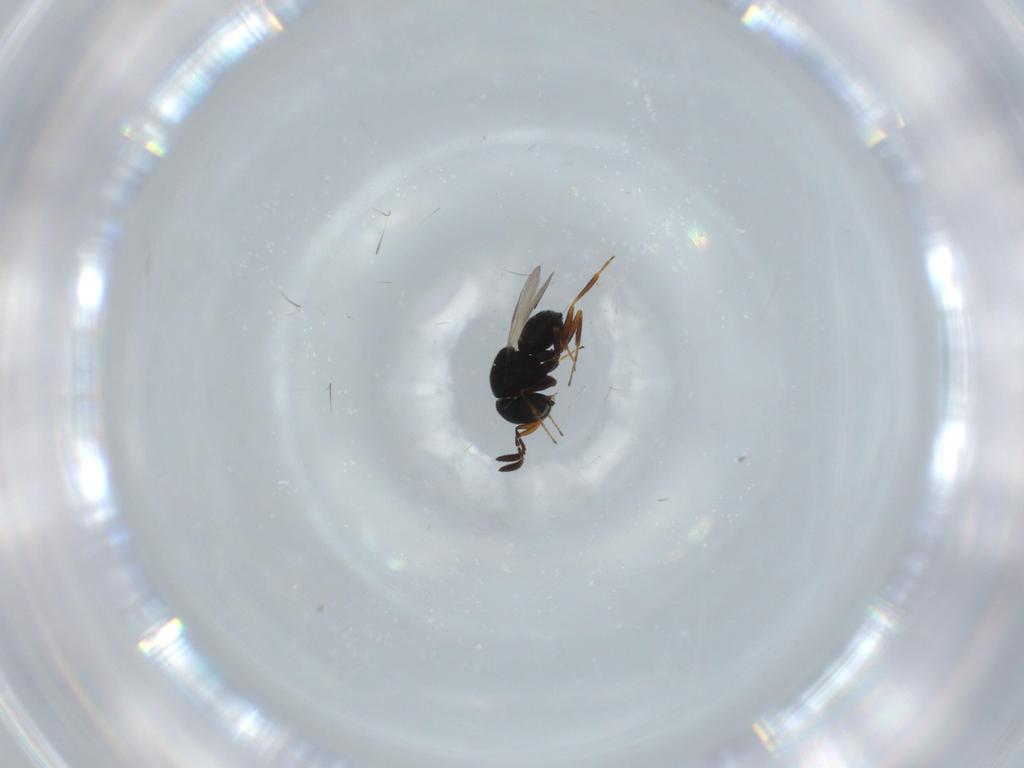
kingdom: Animalia
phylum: Arthropoda
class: Insecta
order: Hymenoptera
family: Scelionidae
